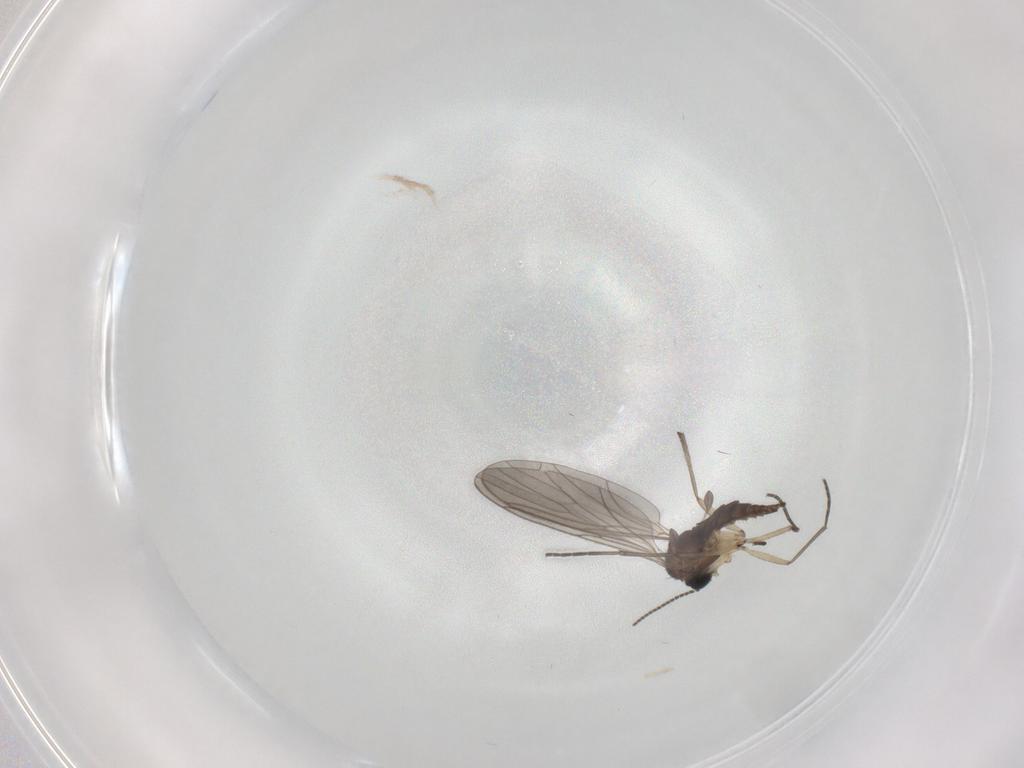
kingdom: Animalia
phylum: Arthropoda
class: Insecta
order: Diptera
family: Sciaridae
